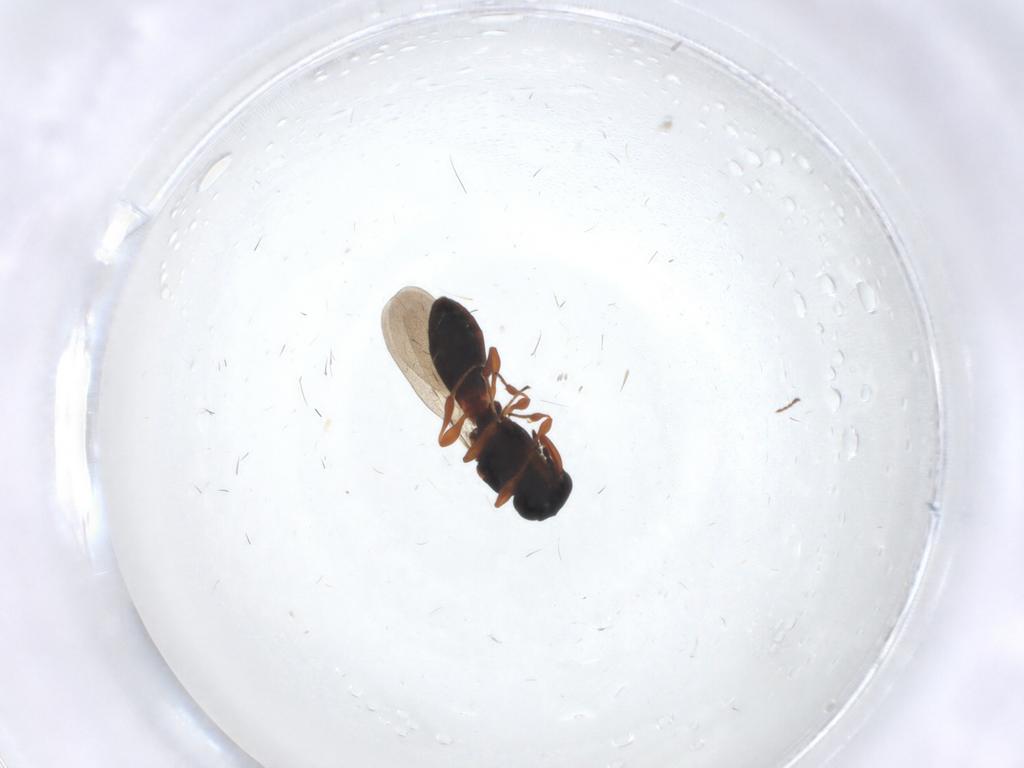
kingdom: Animalia
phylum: Arthropoda
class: Insecta
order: Hymenoptera
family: Platygastridae
